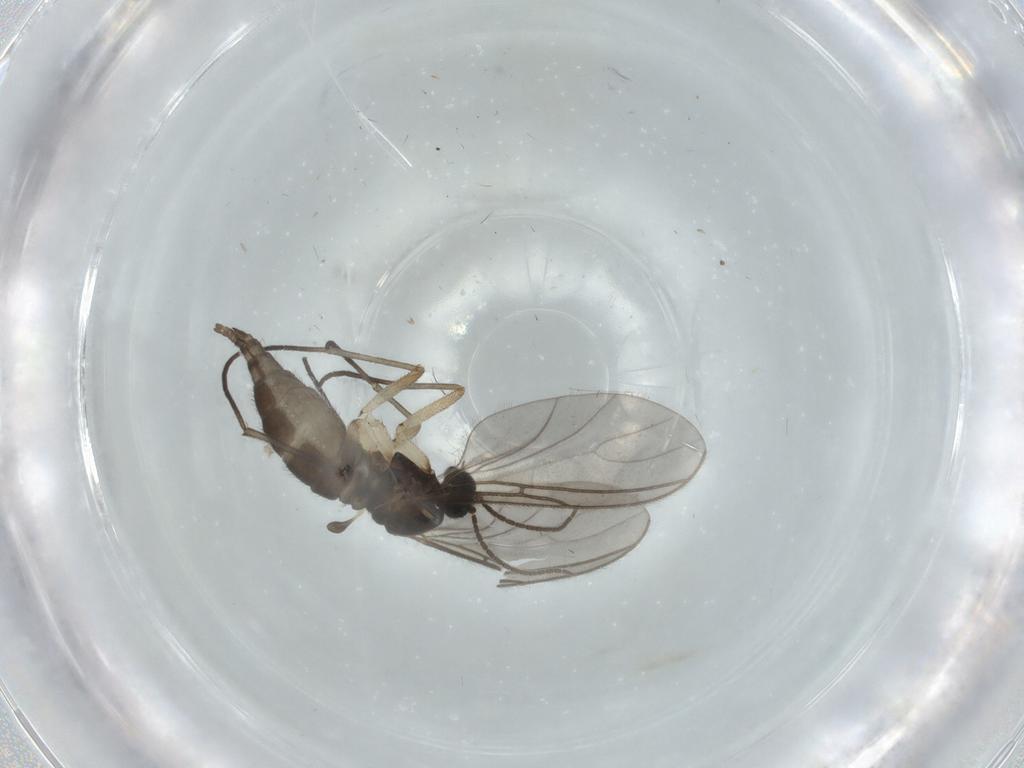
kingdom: Animalia
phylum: Arthropoda
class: Insecta
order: Diptera
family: Mycetophilidae
